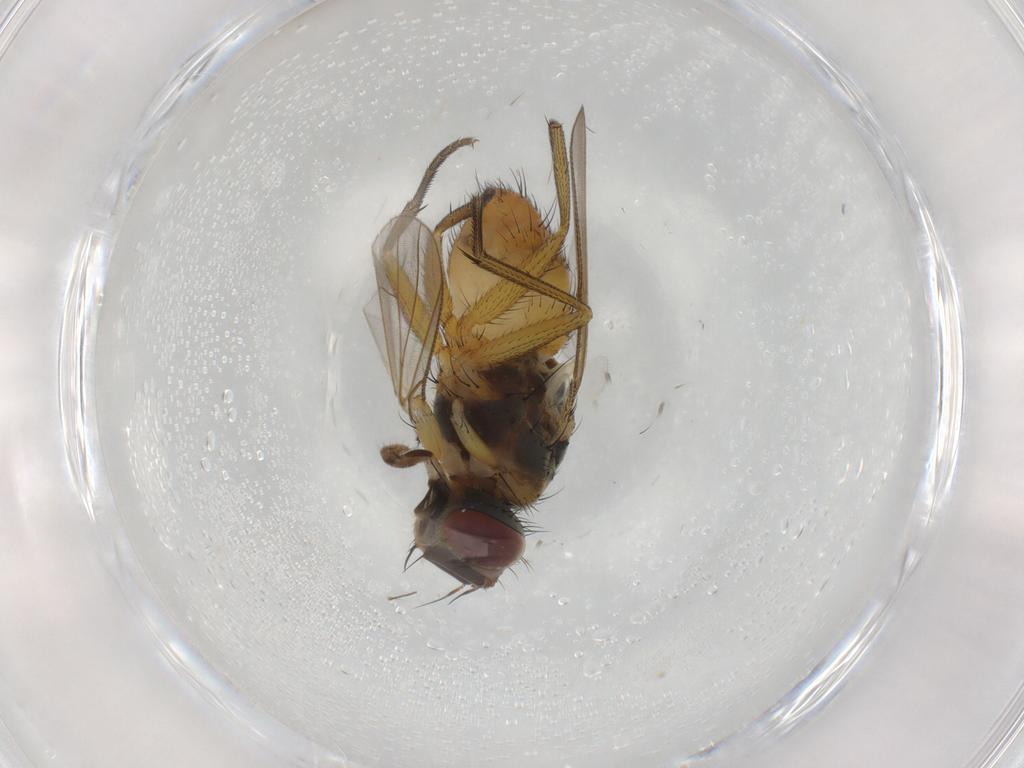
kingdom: Animalia
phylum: Arthropoda
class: Insecta
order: Diptera
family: Muscidae
